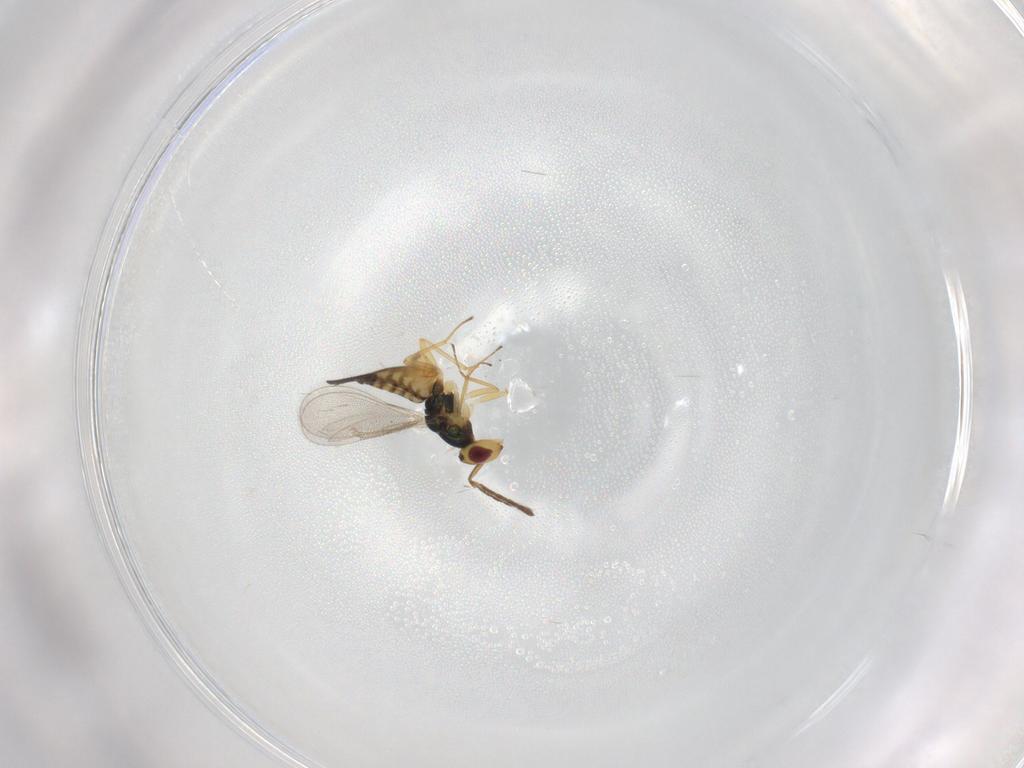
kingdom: Animalia
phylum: Arthropoda
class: Insecta
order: Hymenoptera
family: Eulophidae
